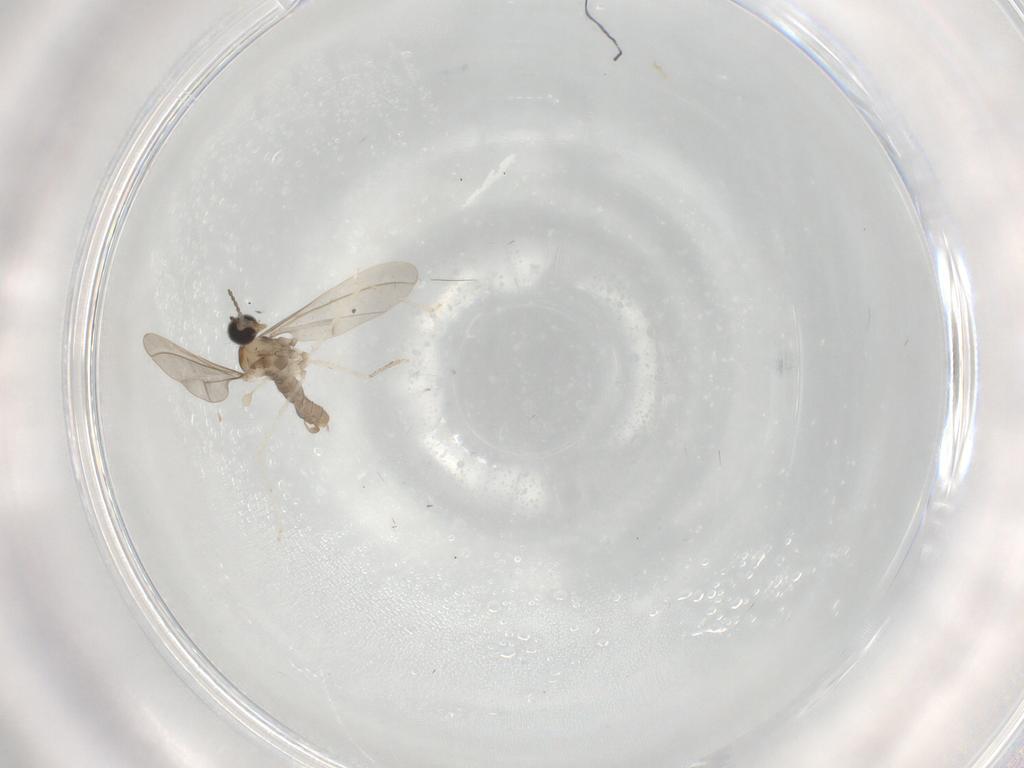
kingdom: Animalia
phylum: Arthropoda
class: Insecta
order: Diptera
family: Cecidomyiidae
